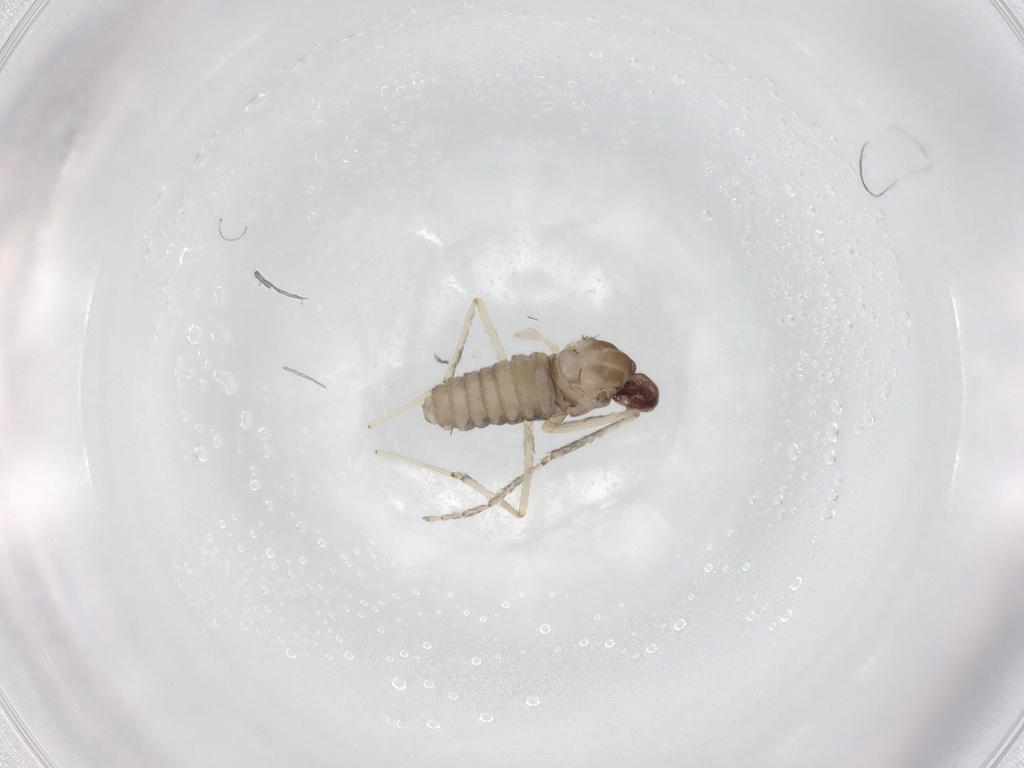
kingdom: Animalia
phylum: Arthropoda
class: Insecta
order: Diptera
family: Cecidomyiidae
